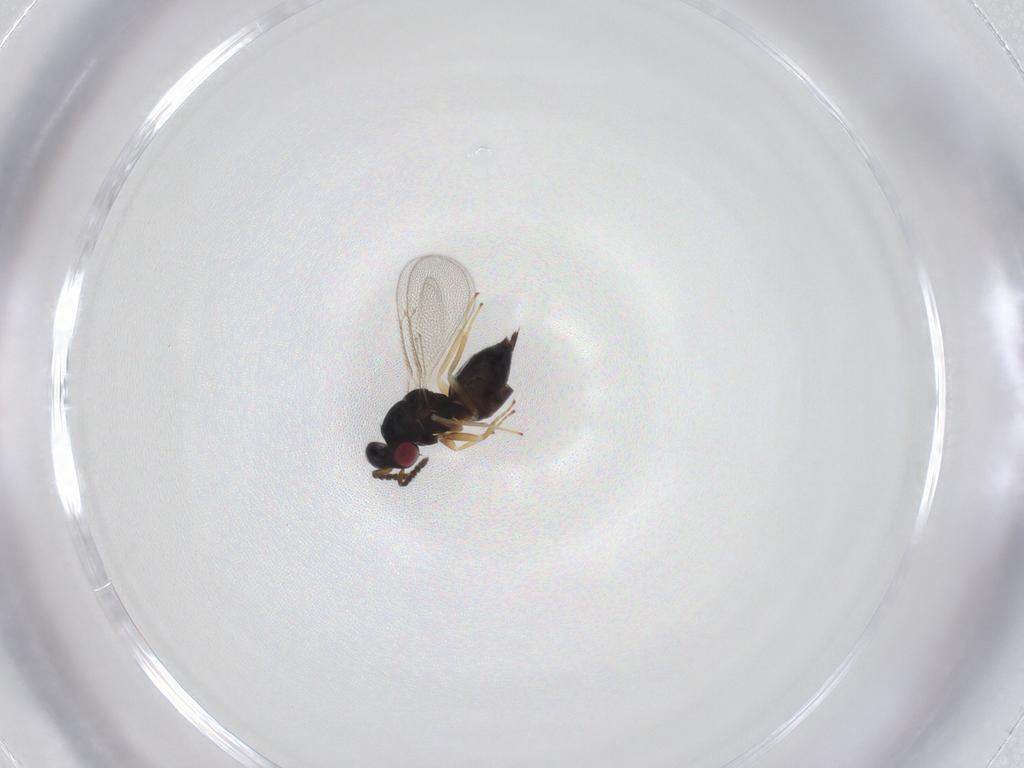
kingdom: Animalia
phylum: Arthropoda
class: Insecta
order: Hymenoptera
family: Eulophidae
